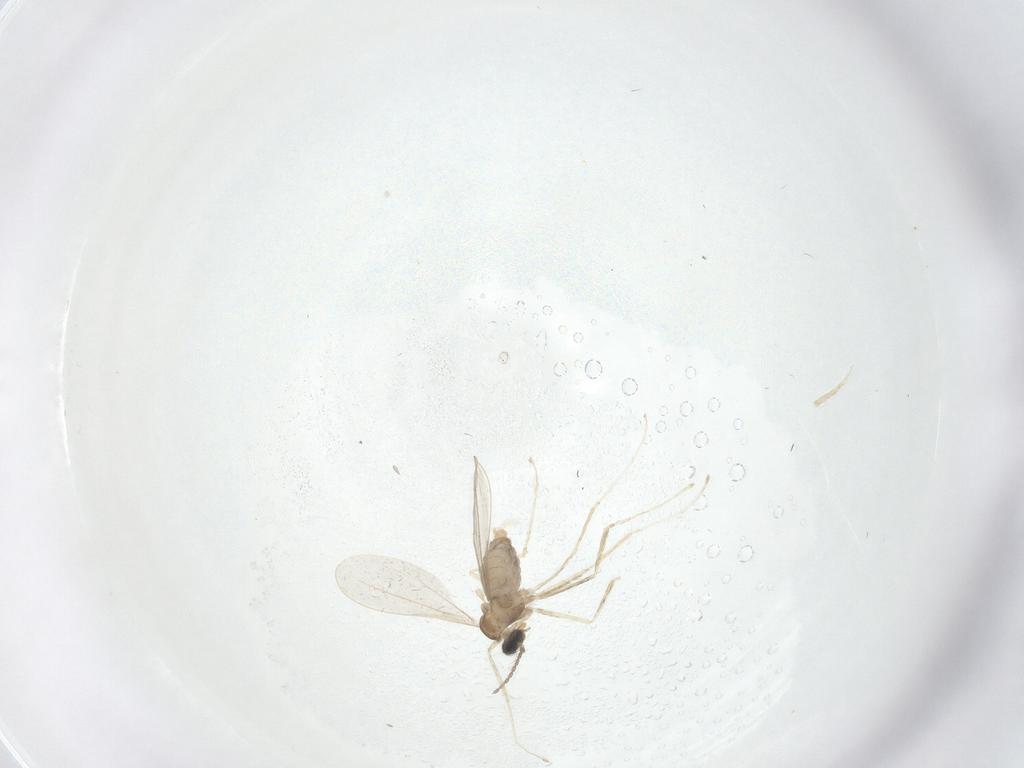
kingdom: Animalia
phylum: Arthropoda
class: Insecta
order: Diptera
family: Cecidomyiidae
